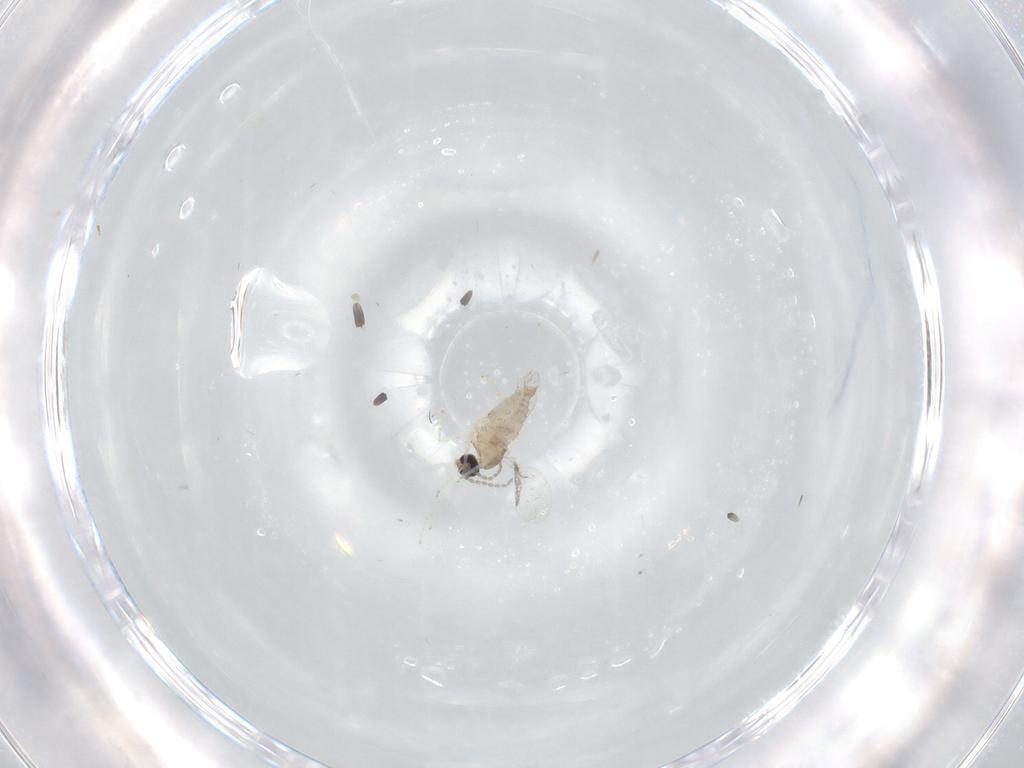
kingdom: Animalia
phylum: Arthropoda
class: Insecta
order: Diptera
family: Cecidomyiidae
